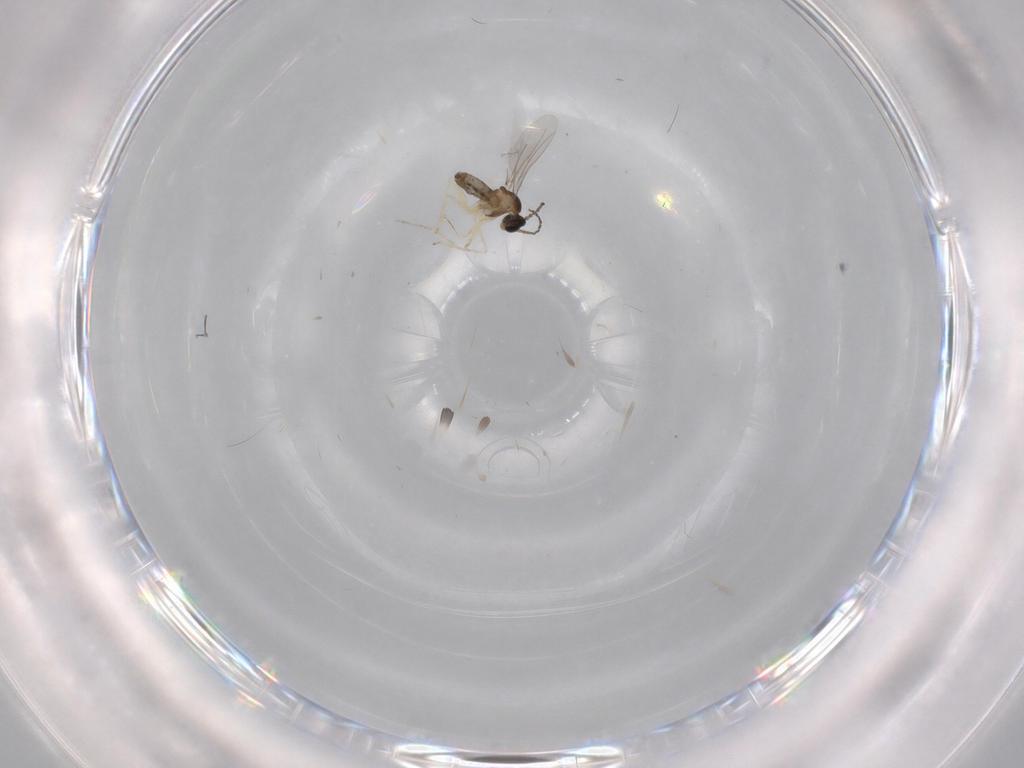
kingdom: Animalia
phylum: Arthropoda
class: Insecta
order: Diptera
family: Cecidomyiidae
